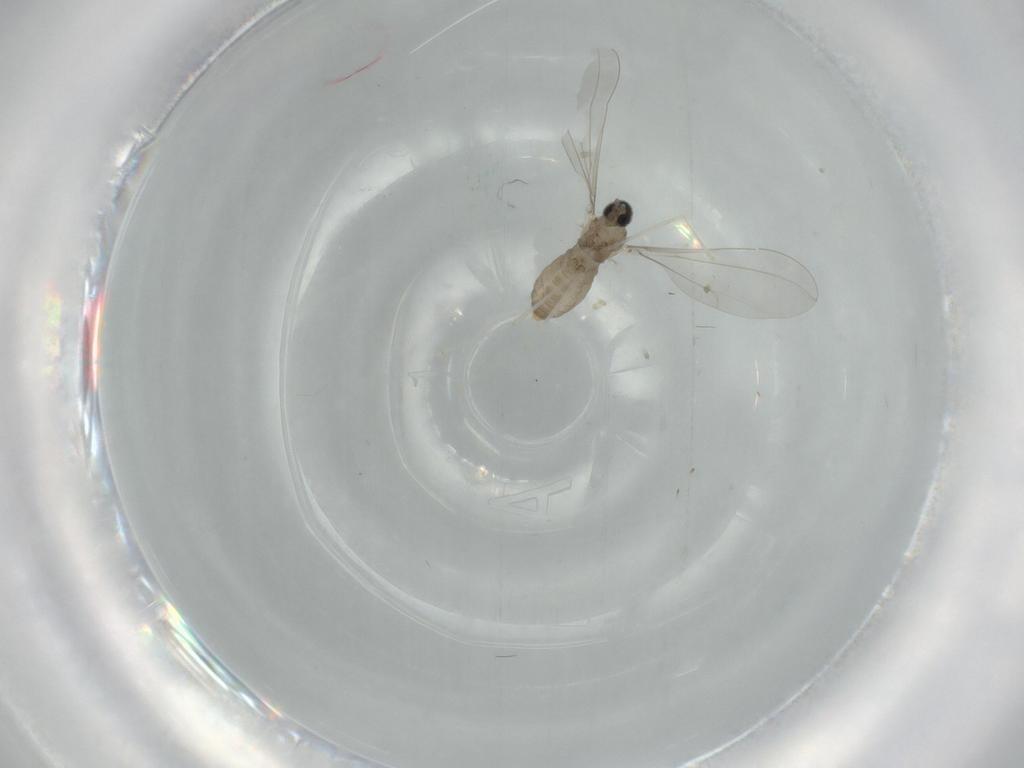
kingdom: Animalia
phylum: Arthropoda
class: Insecta
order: Diptera
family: Cecidomyiidae
